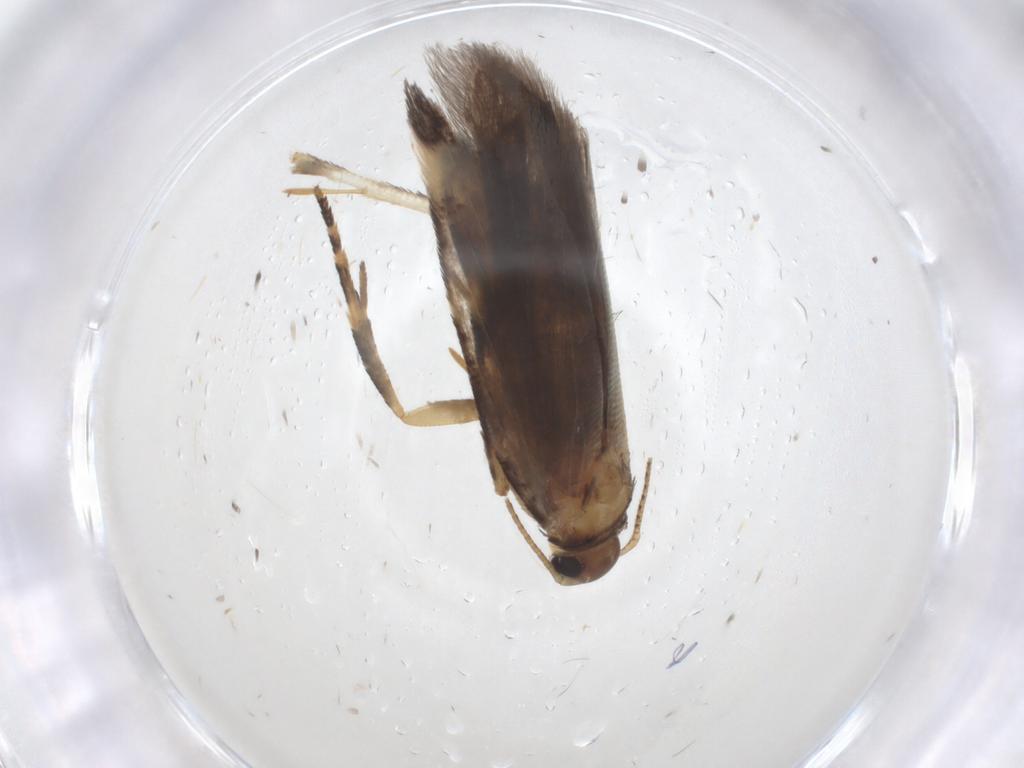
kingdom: Animalia
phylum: Arthropoda
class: Insecta
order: Lepidoptera
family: Gelechiidae
